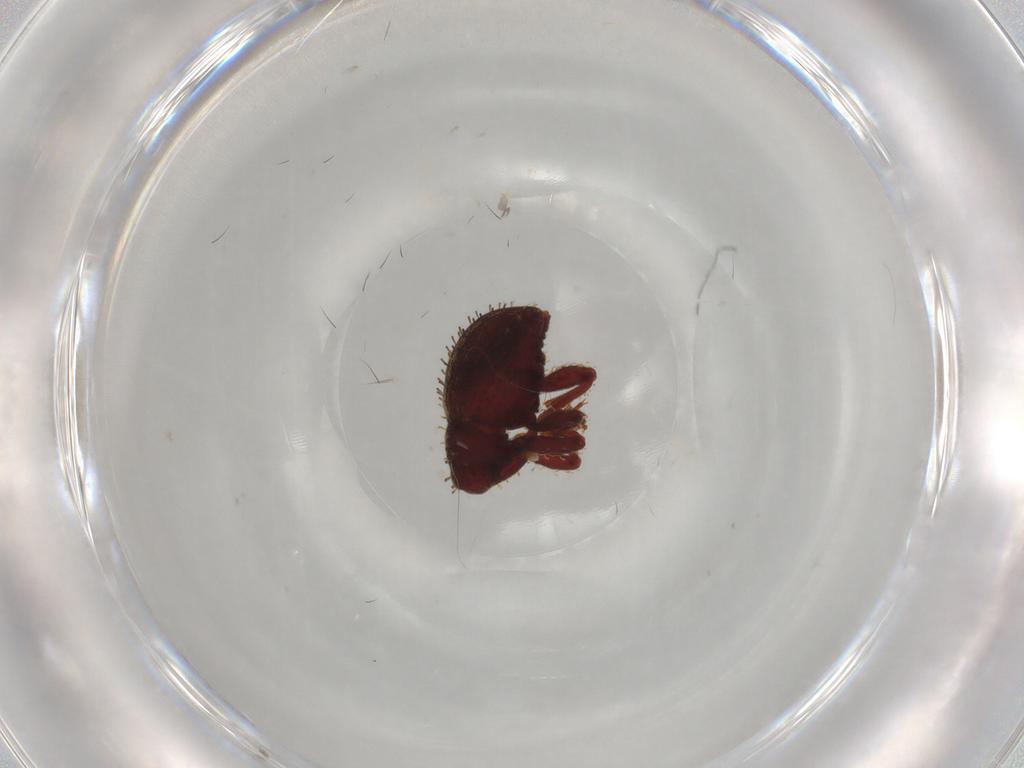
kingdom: Animalia
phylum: Arthropoda
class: Insecta
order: Coleoptera
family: Curculionidae
